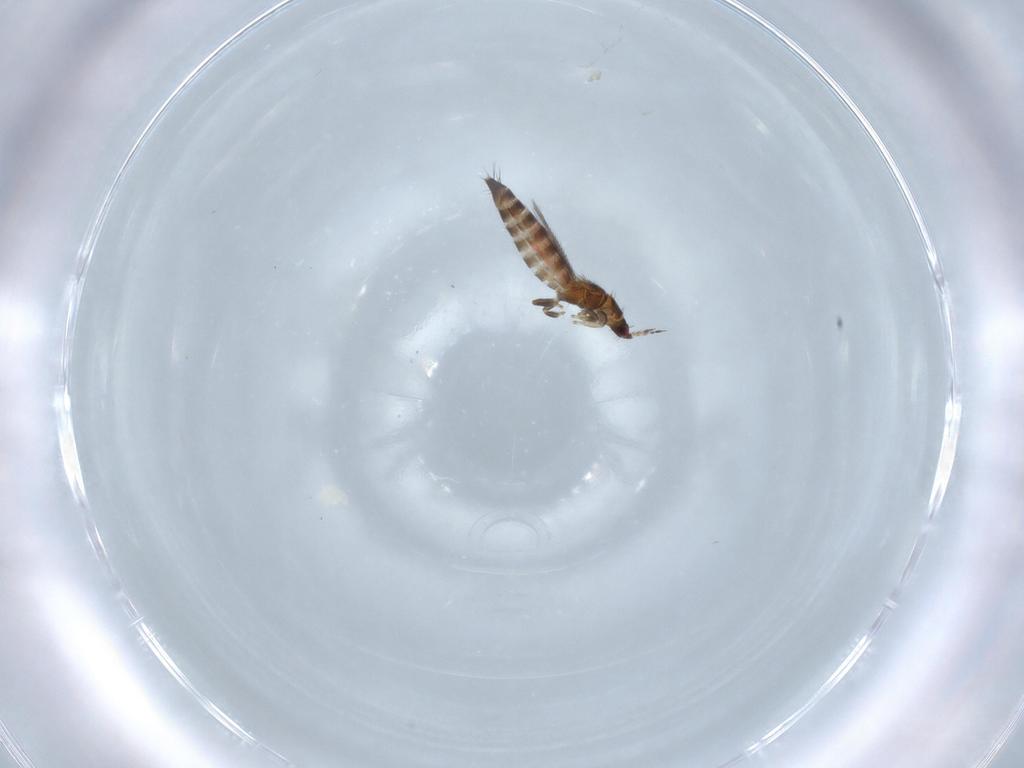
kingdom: Animalia
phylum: Arthropoda
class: Insecta
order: Thysanoptera
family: Thripidae
